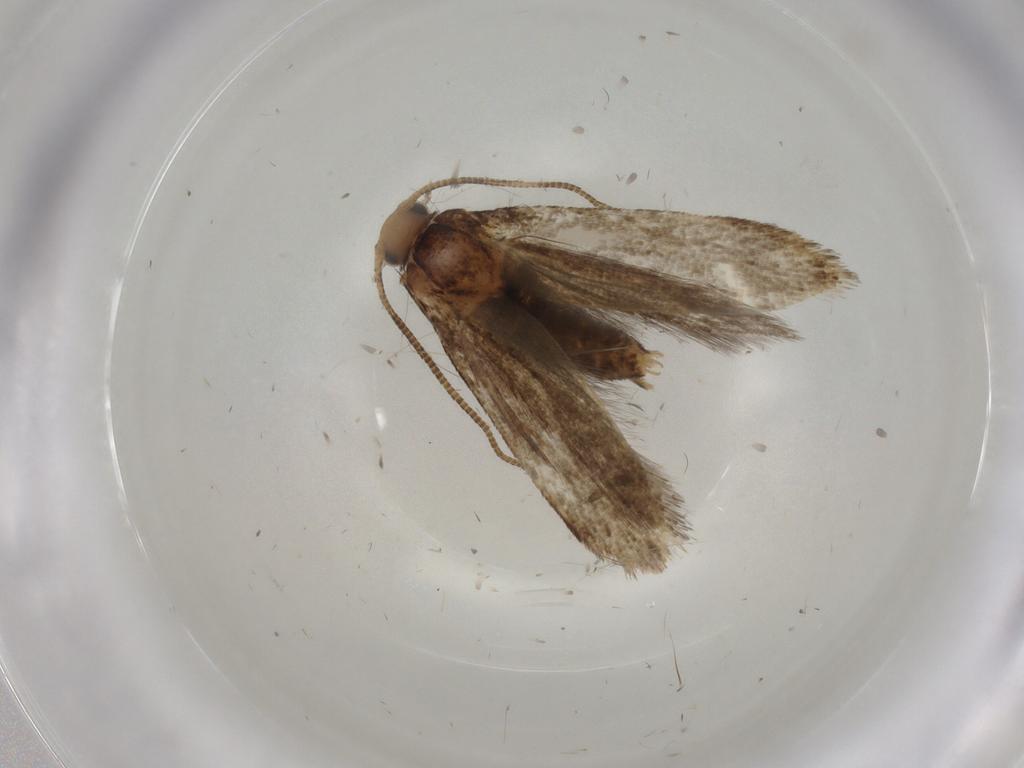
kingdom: Animalia
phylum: Arthropoda
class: Insecta
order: Lepidoptera
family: Tineidae
